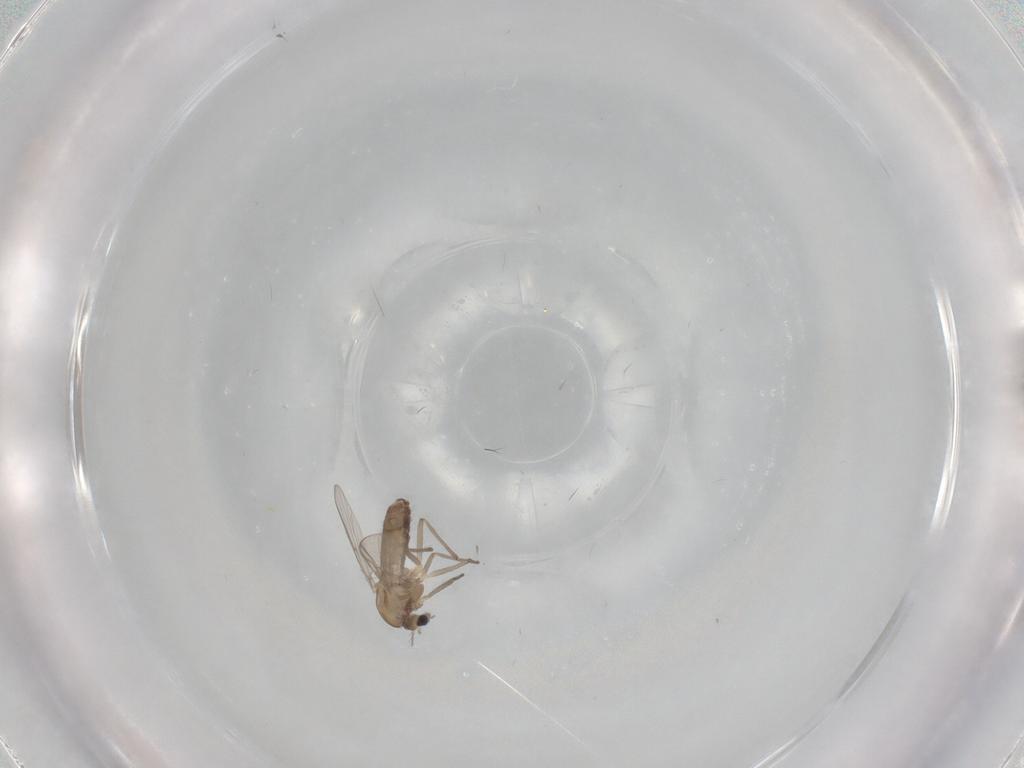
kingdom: Animalia
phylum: Arthropoda
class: Insecta
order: Diptera
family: Chironomidae
